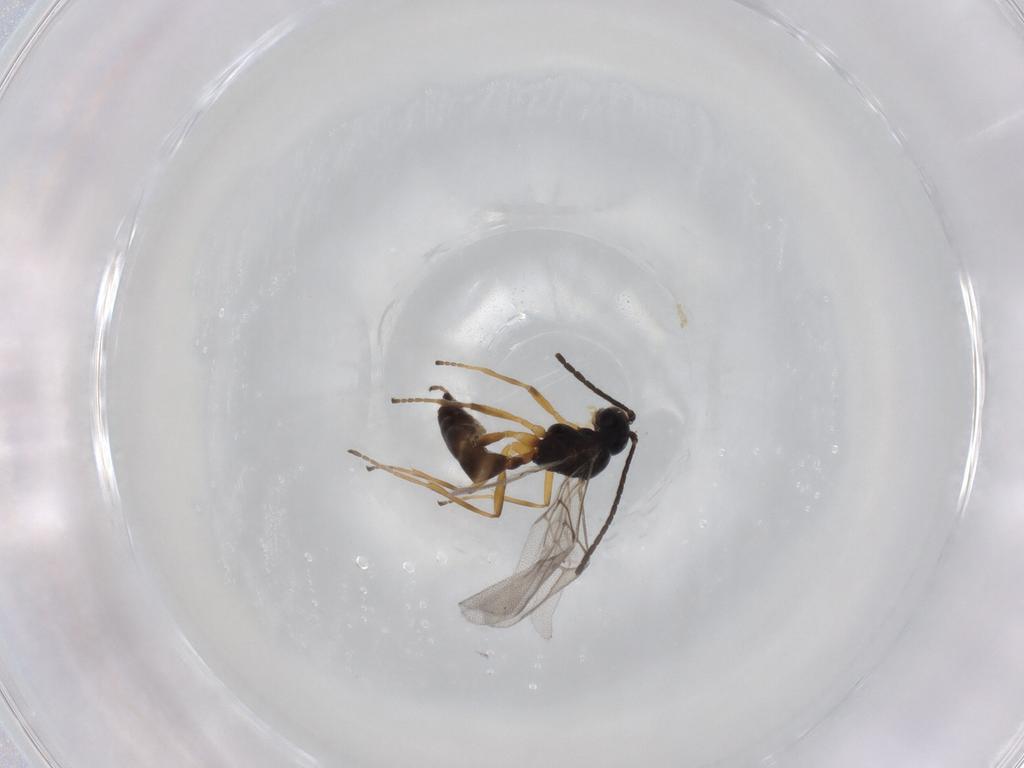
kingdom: Animalia
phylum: Arthropoda
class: Insecta
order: Hymenoptera
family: Braconidae
